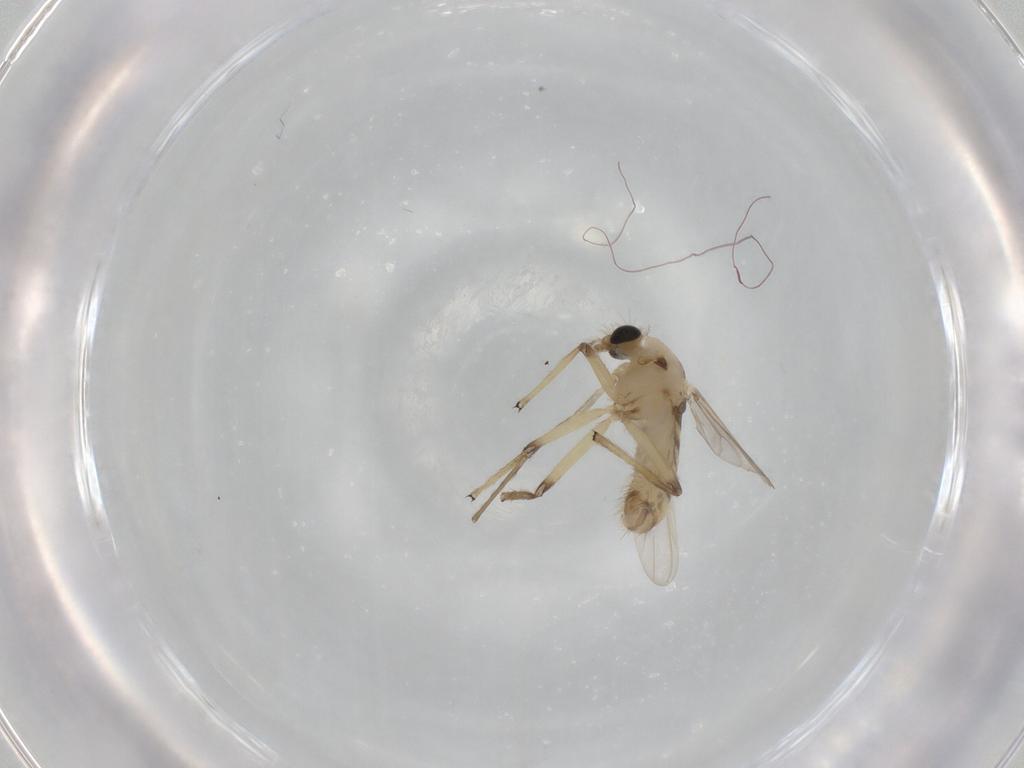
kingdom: Animalia
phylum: Arthropoda
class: Insecta
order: Diptera
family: Chironomidae
